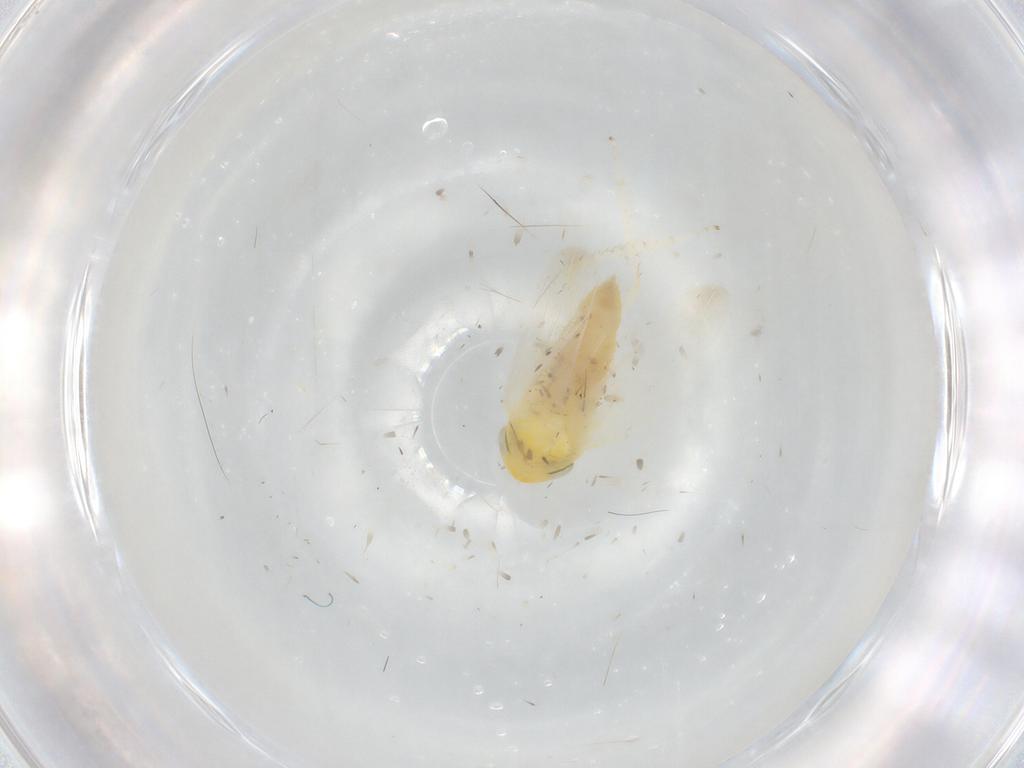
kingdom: Animalia
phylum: Arthropoda
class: Insecta
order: Hemiptera
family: Cicadellidae
